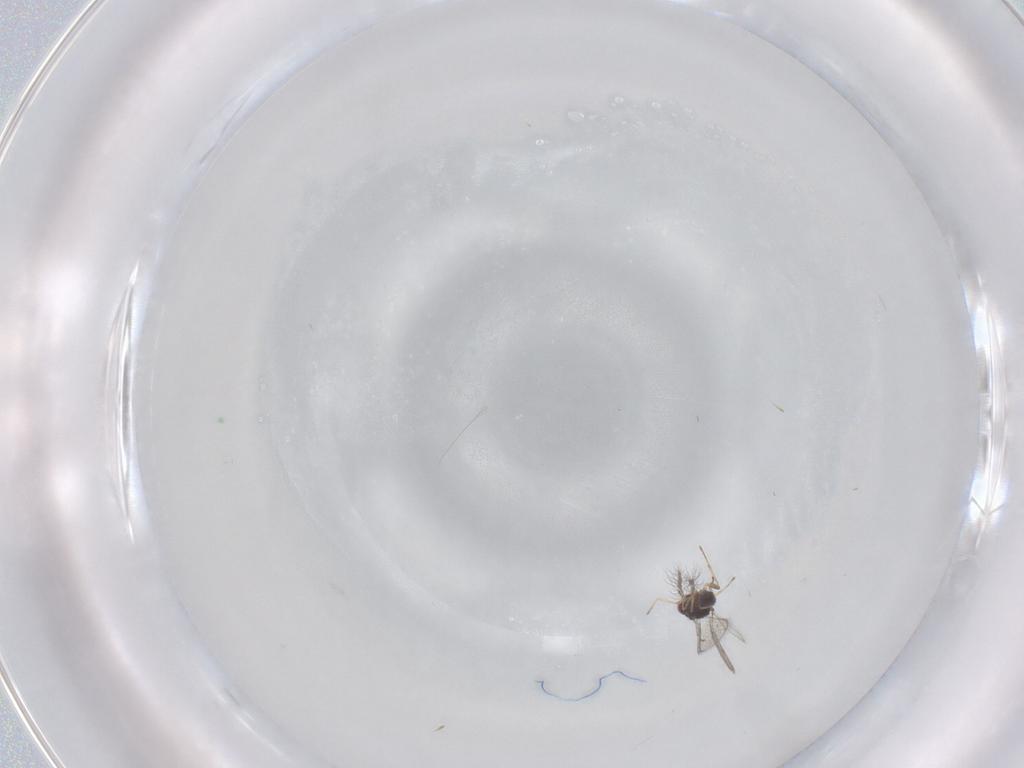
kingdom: Animalia
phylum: Arthropoda
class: Insecta
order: Hymenoptera
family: Eulophidae
